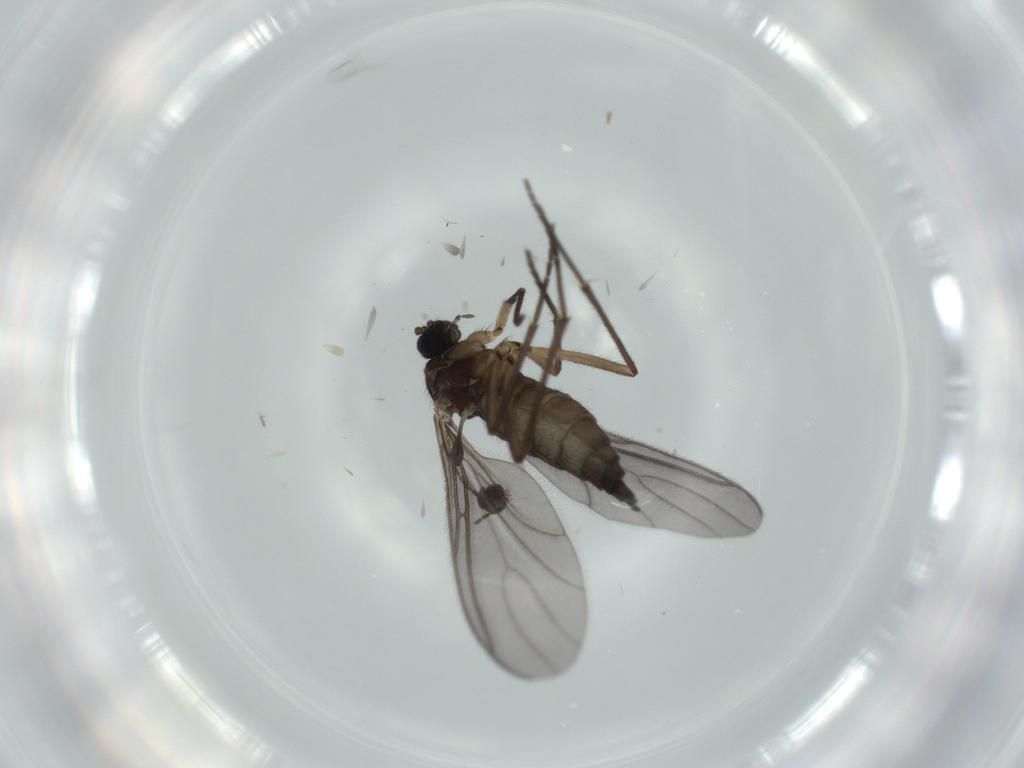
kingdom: Animalia
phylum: Arthropoda
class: Insecta
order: Diptera
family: Sciaridae
